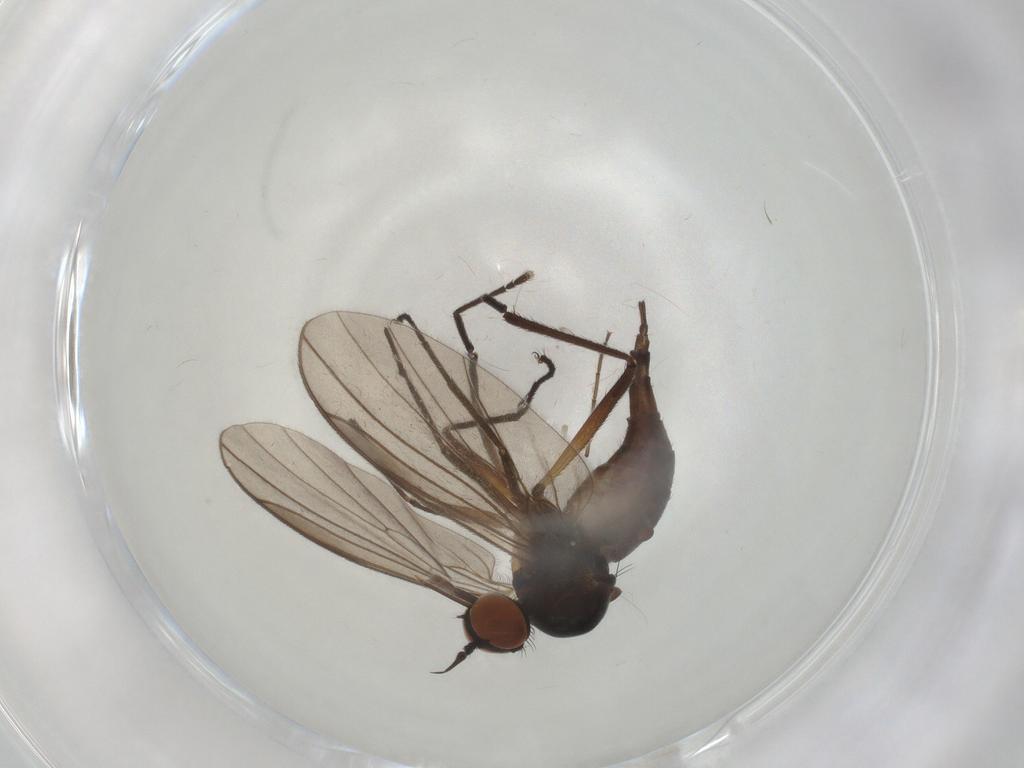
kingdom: Animalia
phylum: Arthropoda
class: Insecta
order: Diptera
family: Empididae
